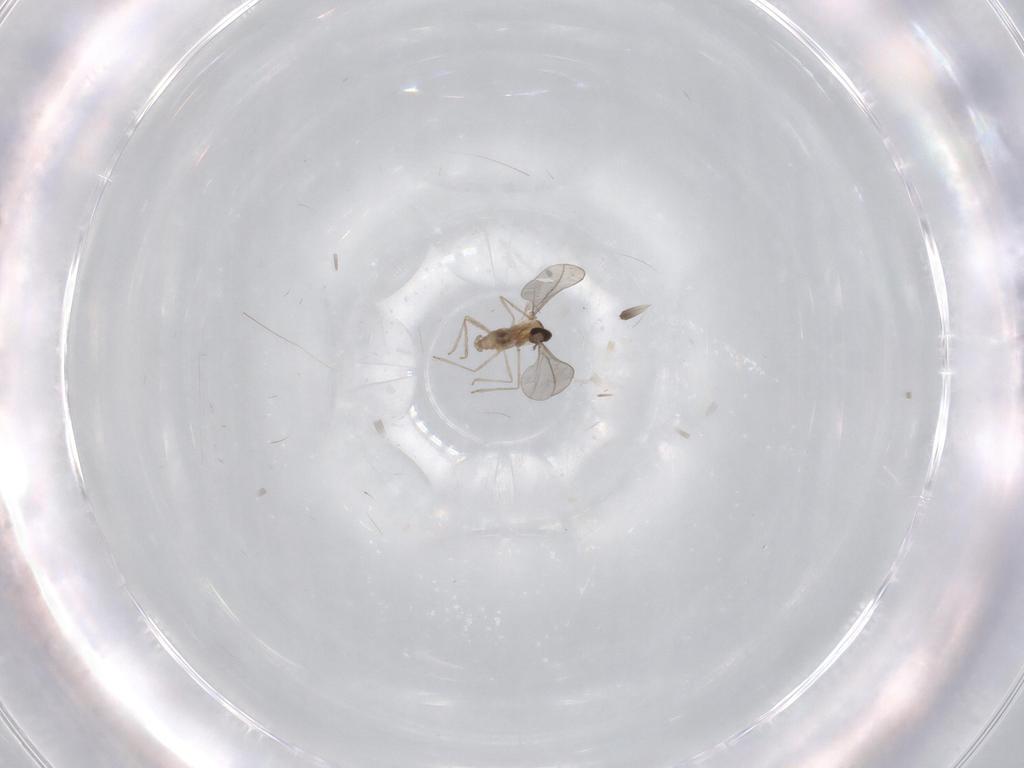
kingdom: Animalia
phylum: Arthropoda
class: Insecta
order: Diptera
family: Cecidomyiidae
